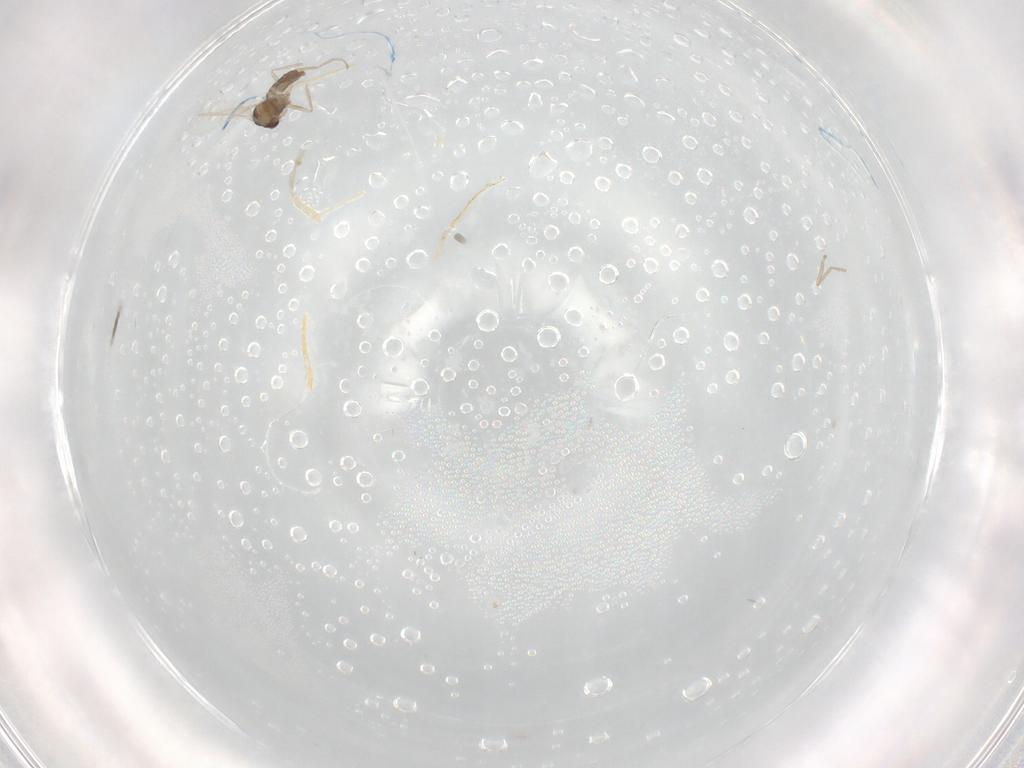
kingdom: Animalia
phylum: Arthropoda
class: Insecta
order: Diptera
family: Cecidomyiidae
